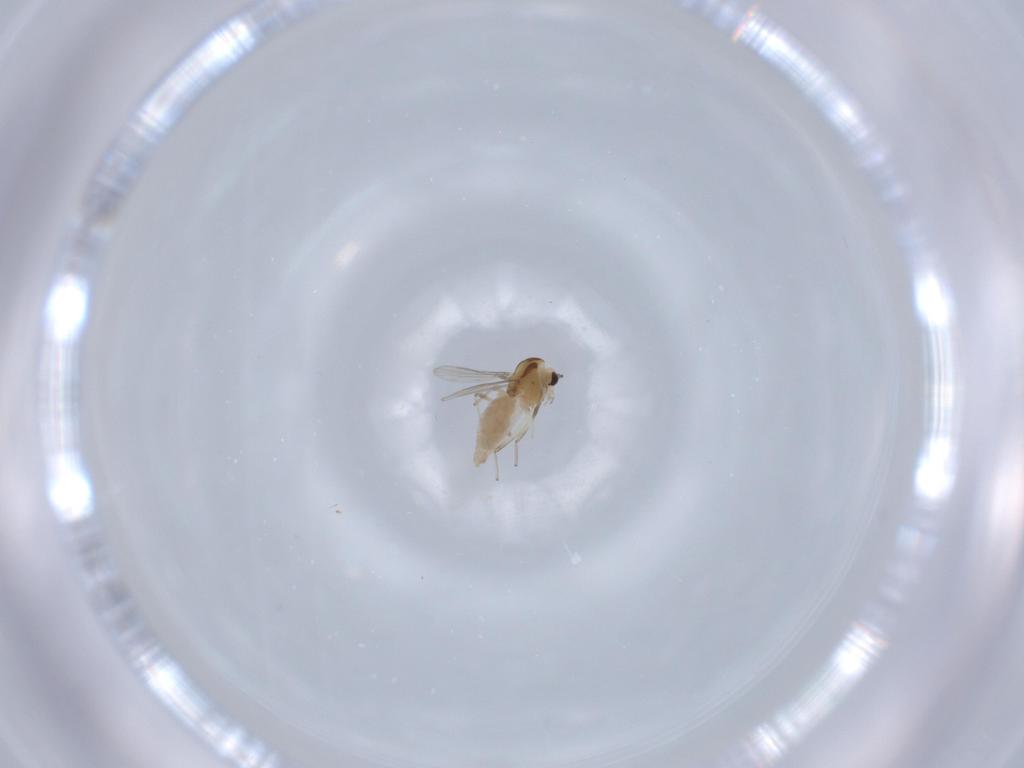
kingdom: Animalia
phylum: Arthropoda
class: Insecta
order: Diptera
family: Chironomidae
